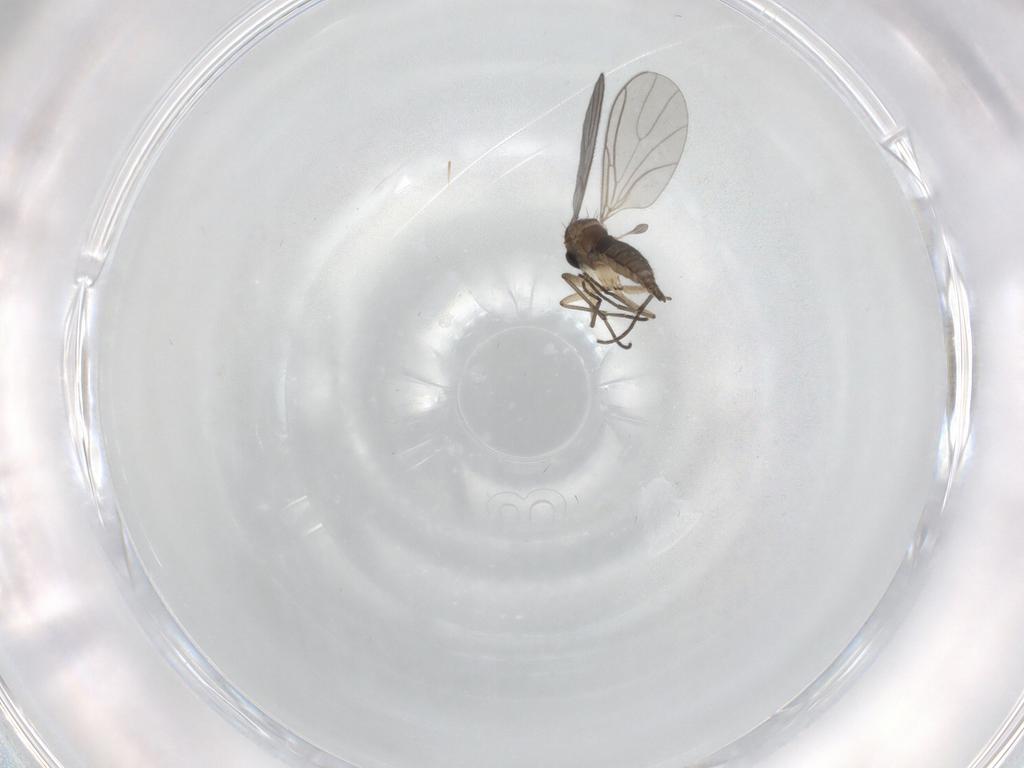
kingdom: Animalia
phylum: Arthropoda
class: Insecta
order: Diptera
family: Sciaridae
